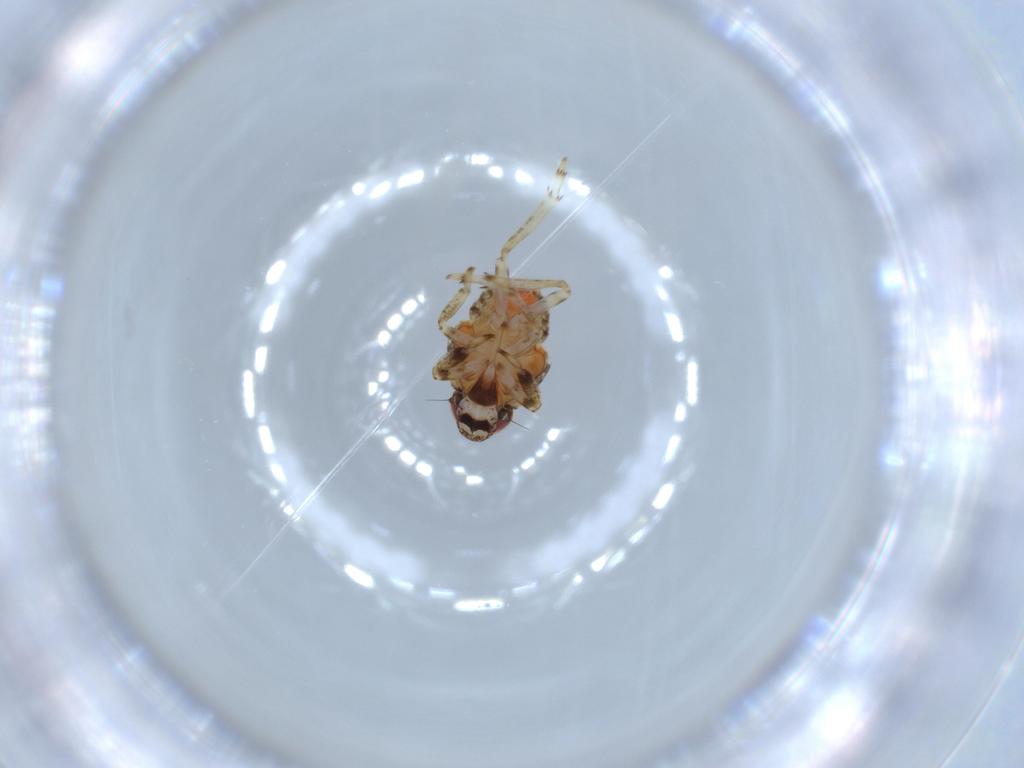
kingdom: Animalia
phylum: Arthropoda
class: Insecta
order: Hemiptera
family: Issidae
